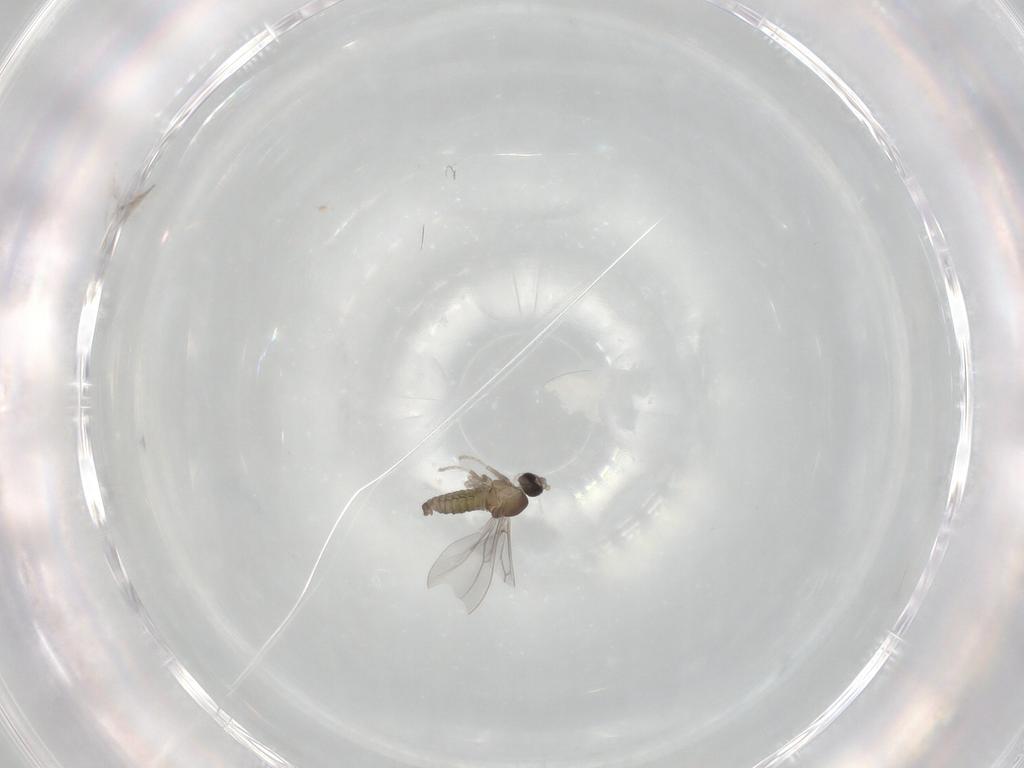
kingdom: Animalia
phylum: Arthropoda
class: Insecta
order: Diptera
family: Cecidomyiidae
